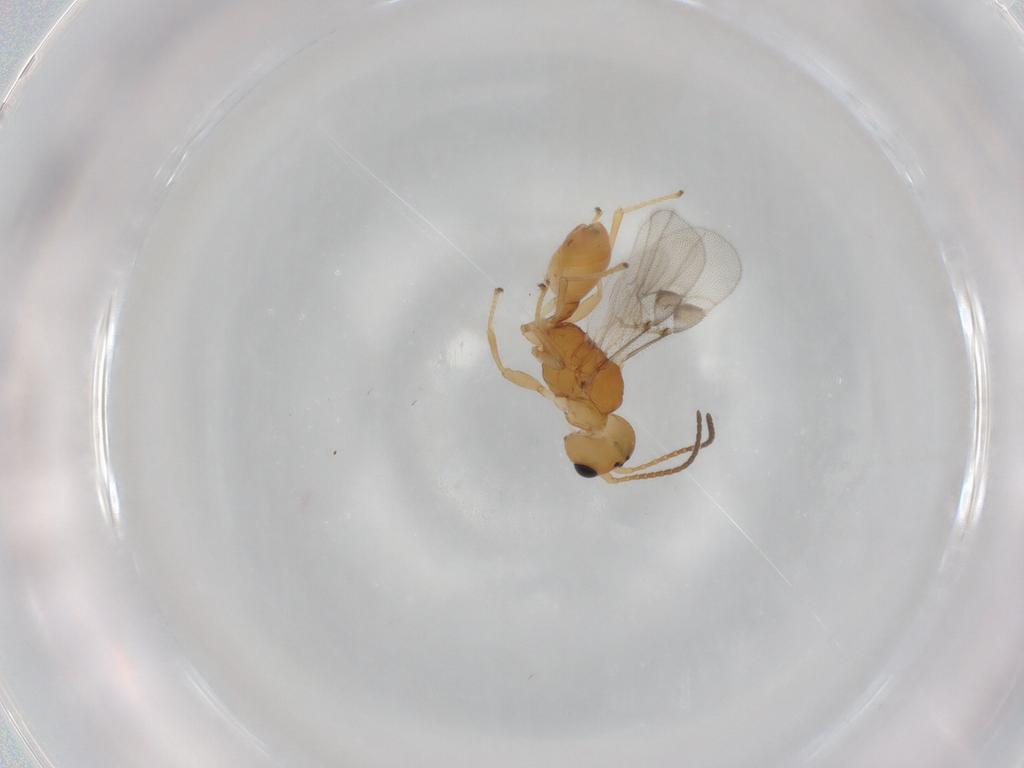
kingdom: Animalia
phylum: Arthropoda
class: Insecta
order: Hymenoptera
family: Braconidae
